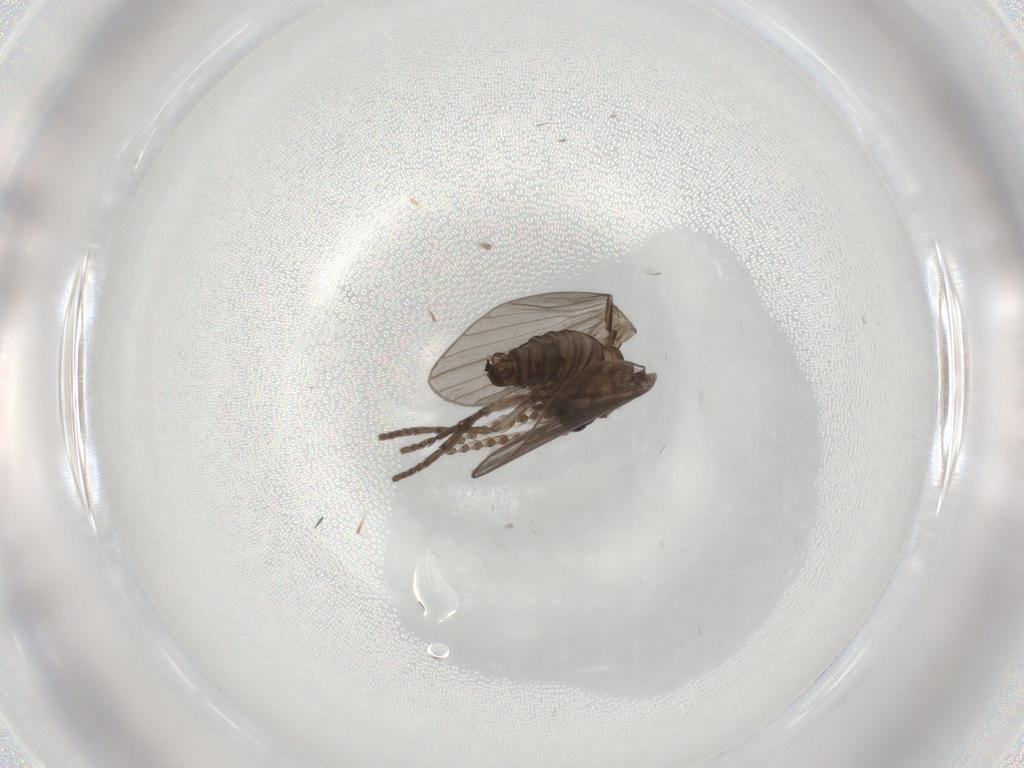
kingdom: Animalia
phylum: Arthropoda
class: Insecta
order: Diptera
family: Psychodidae
